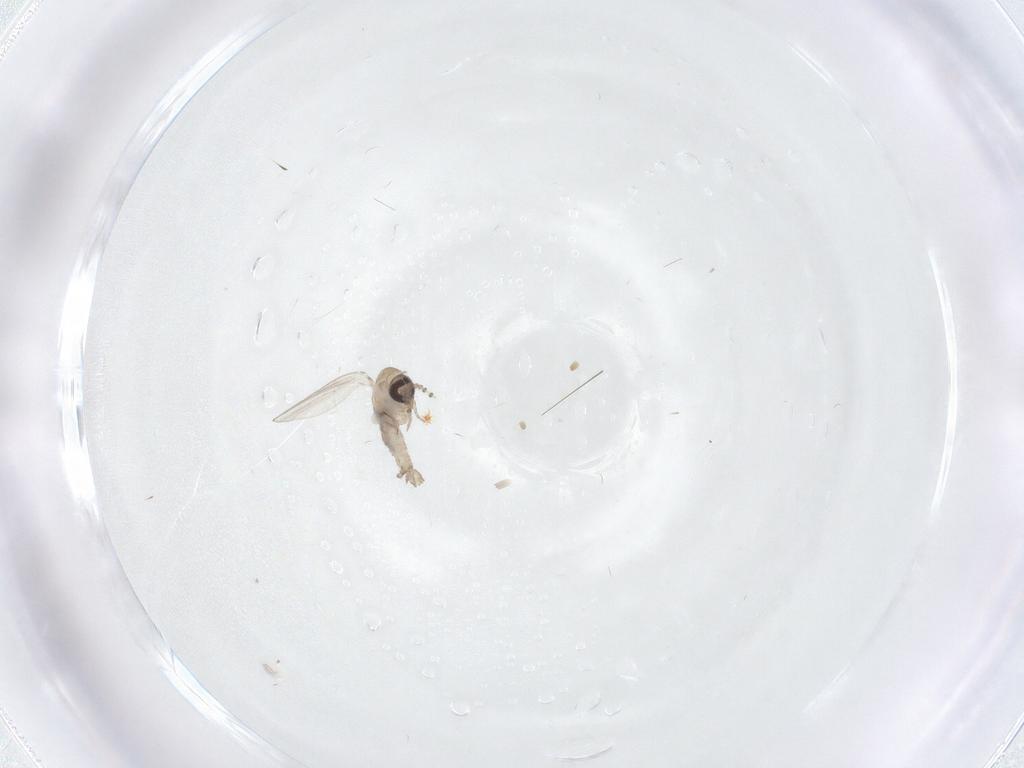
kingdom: Animalia
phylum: Arthropoda
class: Insecta
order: Diptera
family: Psychodidae
